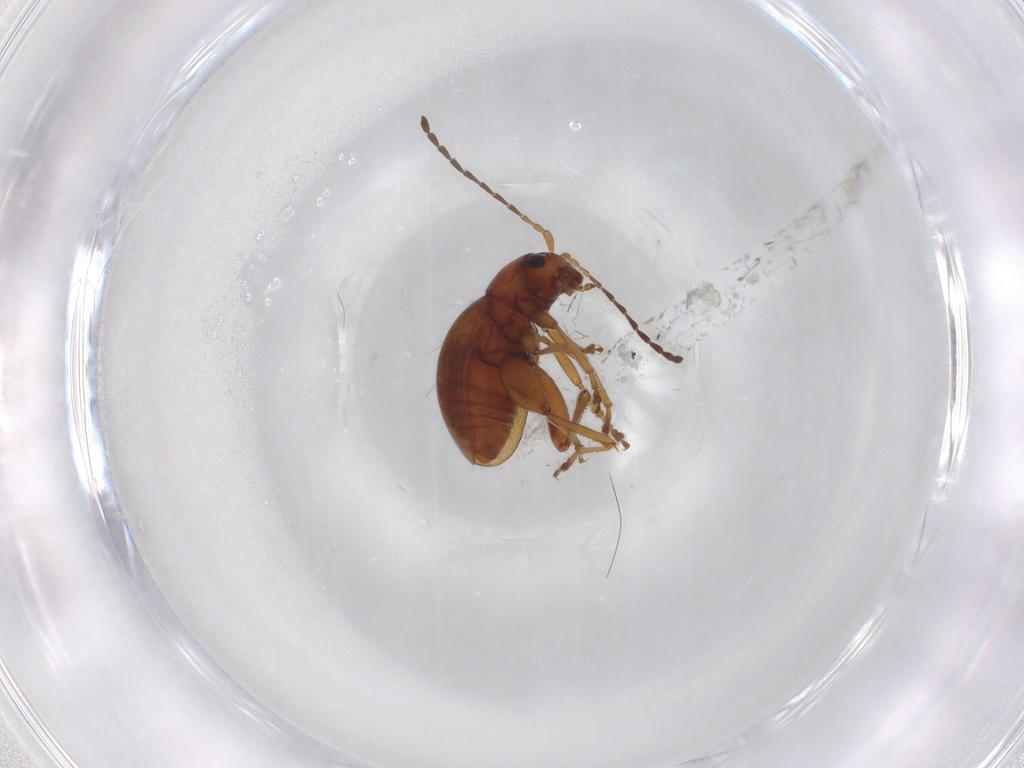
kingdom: Animalia
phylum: Arthropoda
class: Insecta
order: Coleoptera
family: Chrysomelidae
